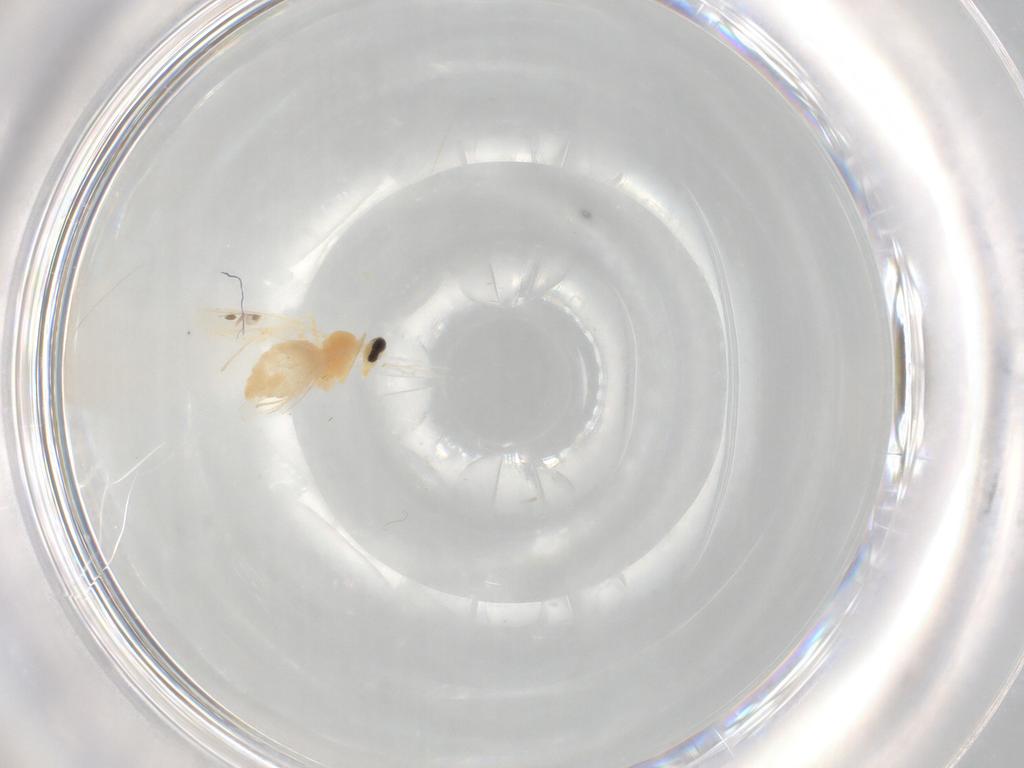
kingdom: Animalia
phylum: Arthropoda
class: Insecta
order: Diptera
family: Cecidomyiidae
